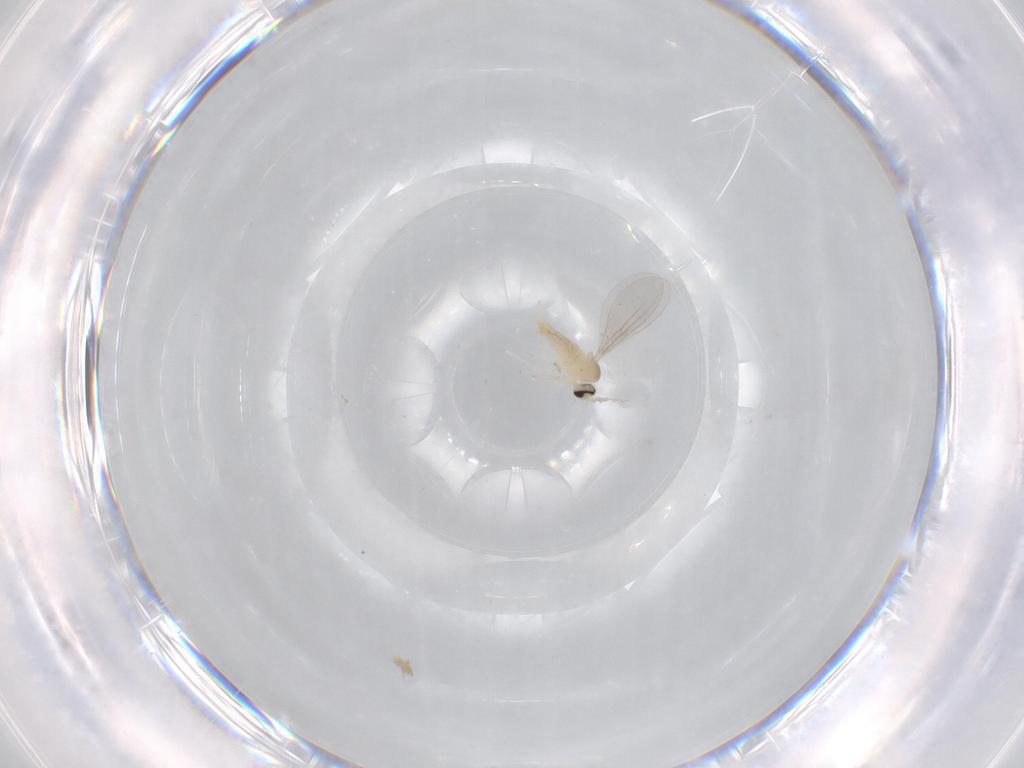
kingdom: Animalia
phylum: Arthropoda
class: Insecta
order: Diptera
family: Cecidomyiidae
